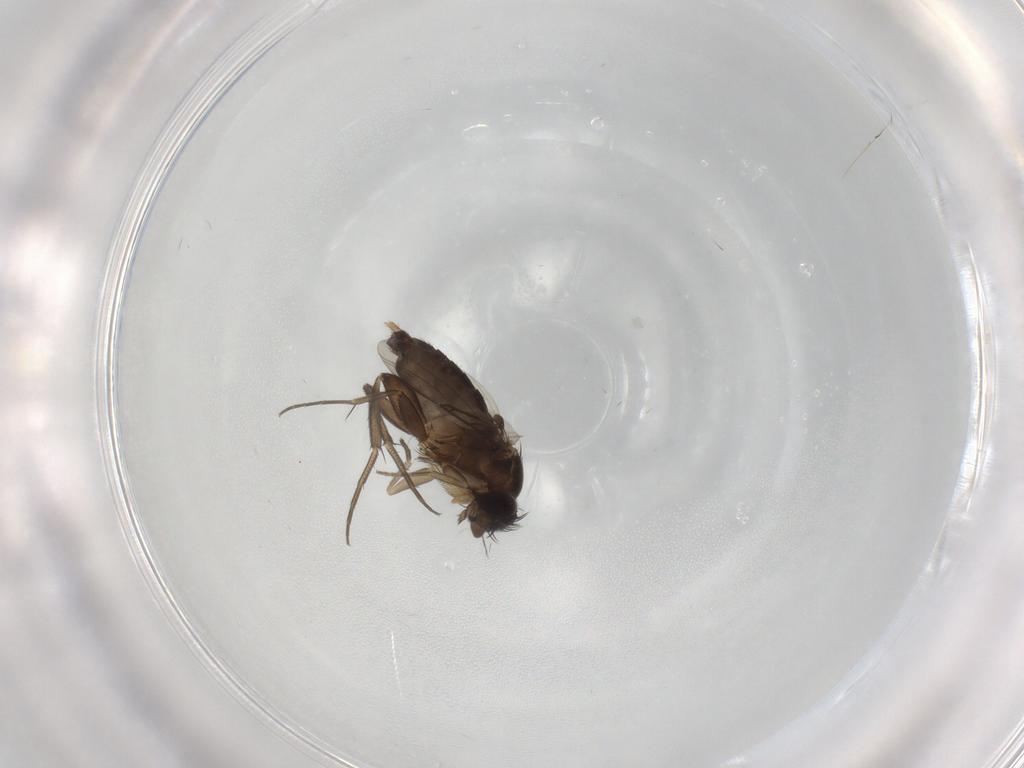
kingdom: Animalia
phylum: Arthropoda
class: Insecta
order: Diptera
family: Phoridae
